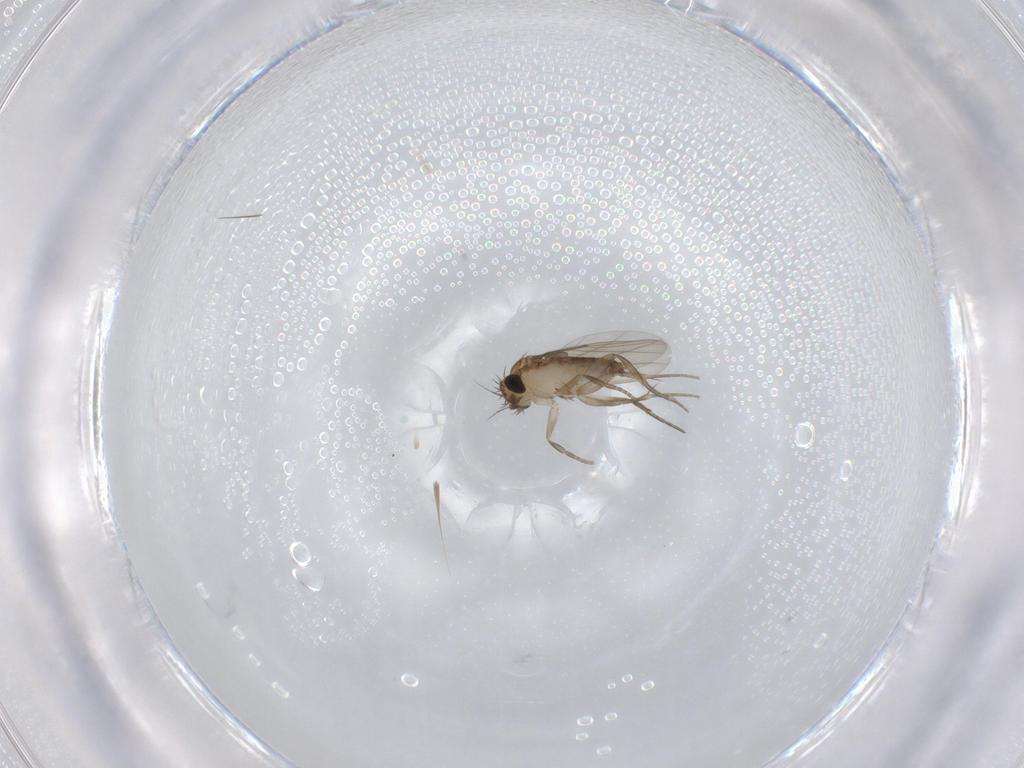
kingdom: Animalia
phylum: Arthropoda
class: Insecta
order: Diptera
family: Phoridae
